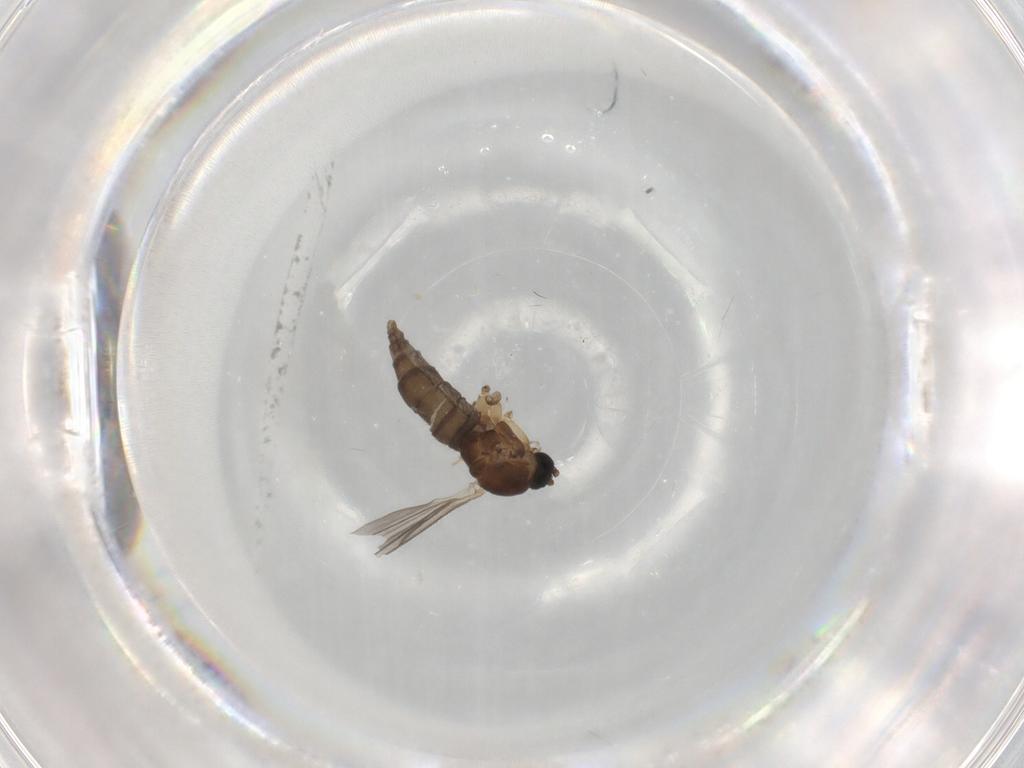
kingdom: Animalia
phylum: Arthropoda
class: Insecta
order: Diptera
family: Sciaridae
